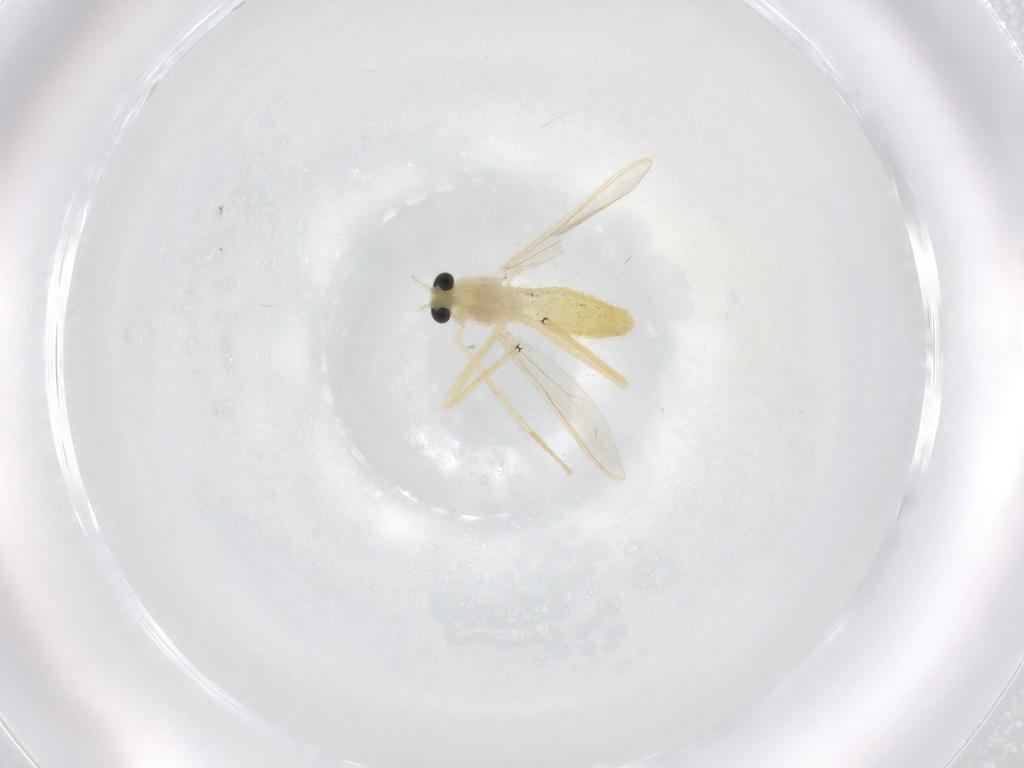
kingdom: Animalia
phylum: Arthropoda
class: Insecta
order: Diptera
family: Chironomidae
